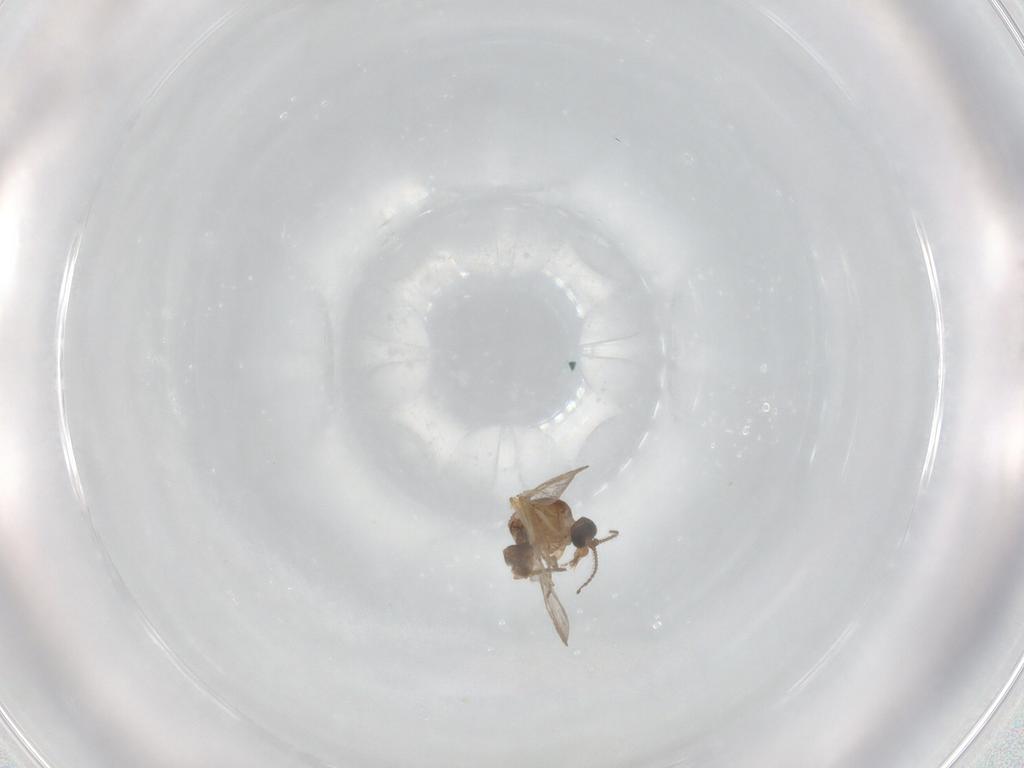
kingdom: Animalia
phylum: Arthropoda
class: Insecta
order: Diptera
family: Ceratopogonidae
